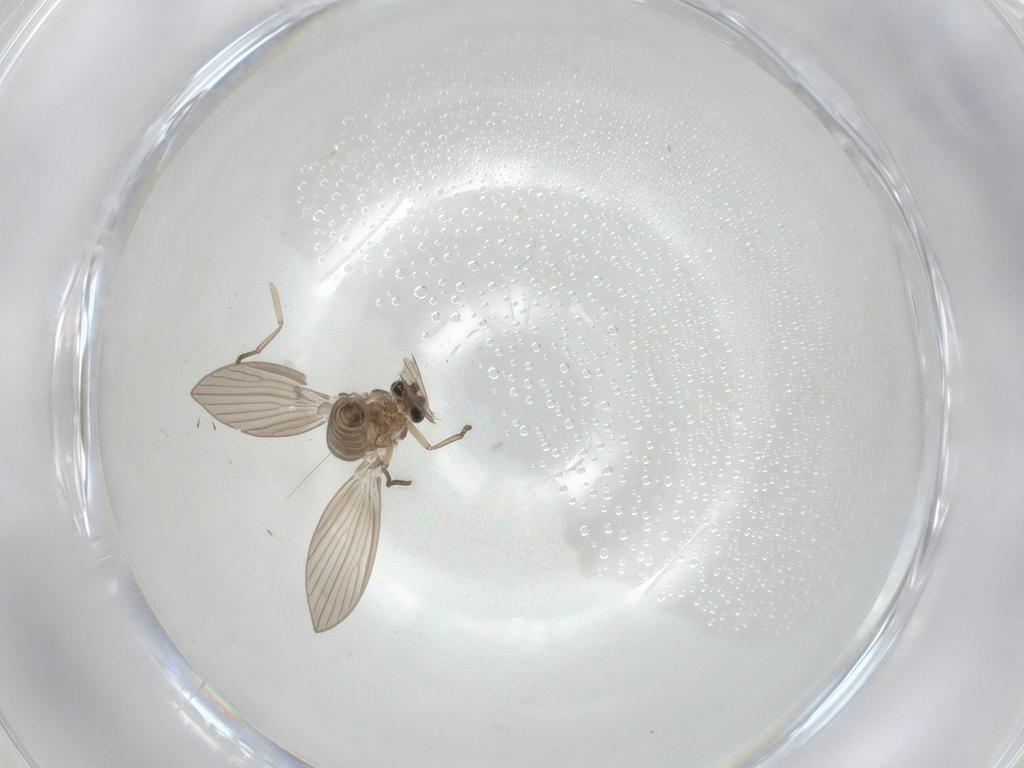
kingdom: Animalia
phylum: Arthropoda
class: Insecta
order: Diptera
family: Psychodidae
